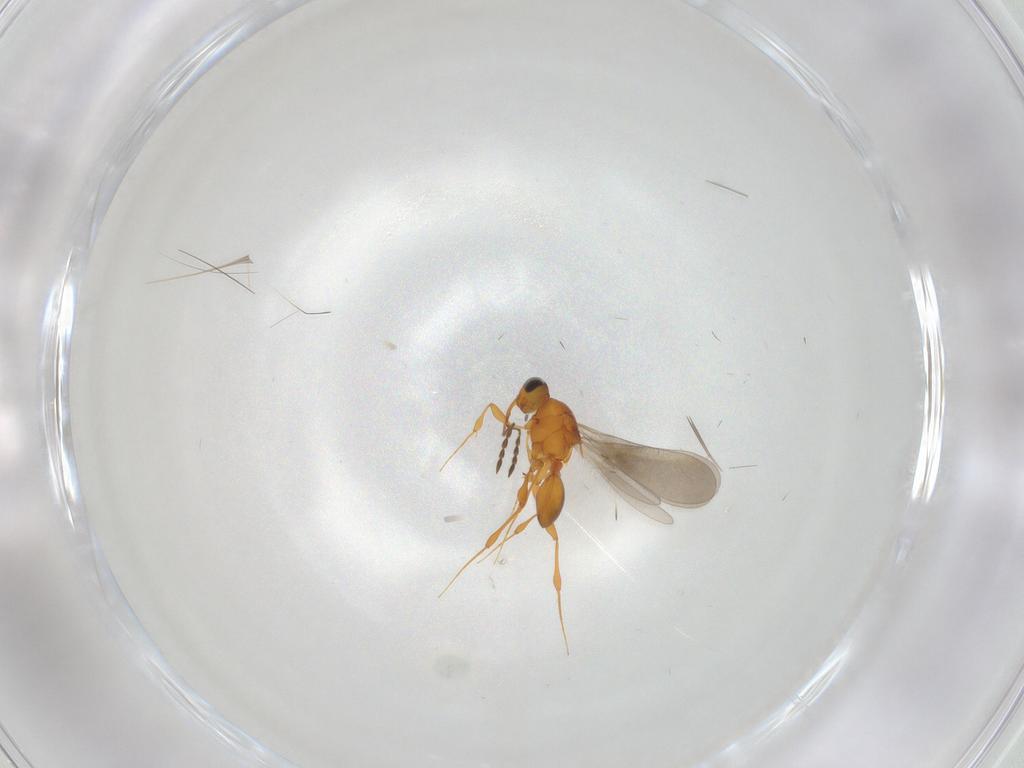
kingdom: Animalia
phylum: Arthropoda
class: Insecta
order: Hymenoptera
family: Platygastridae
